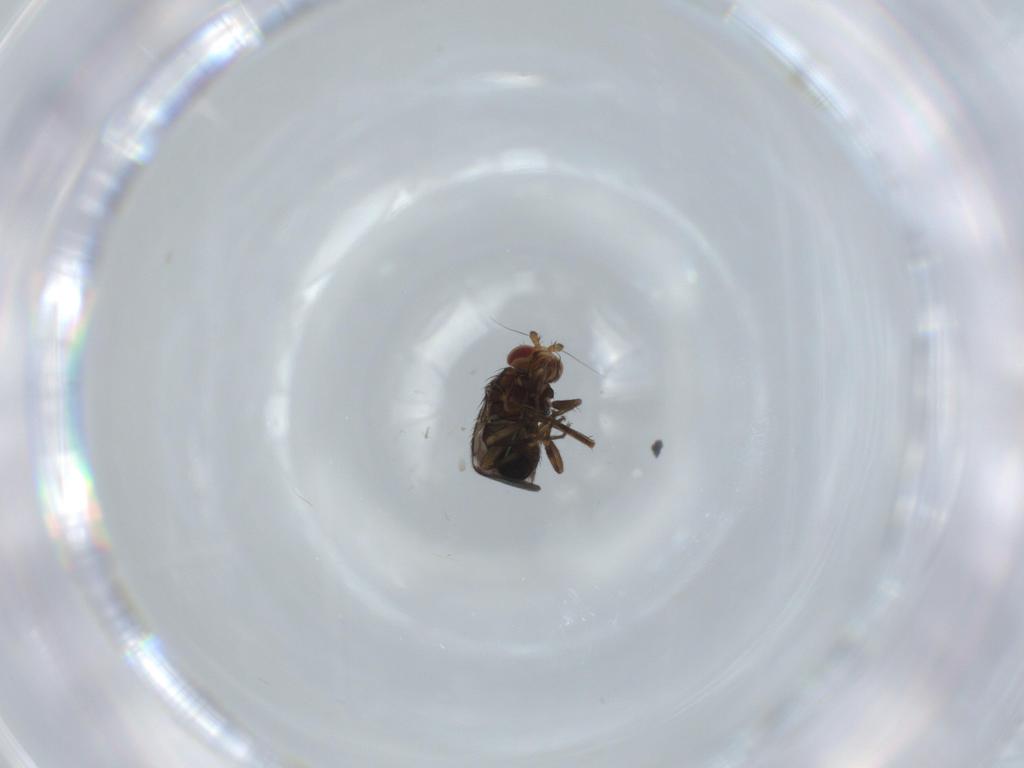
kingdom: Animalia
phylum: Arthropoda
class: Insecta
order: Diptera
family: Sphaeroceridae
